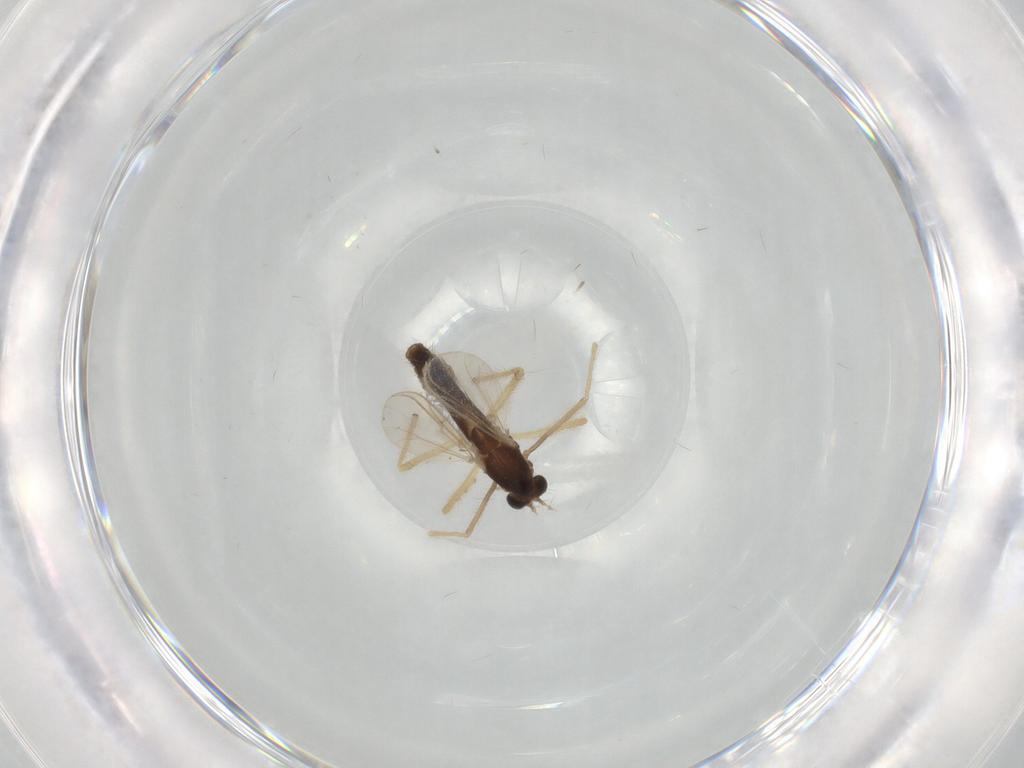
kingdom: Animalia
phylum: Arthropoda
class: Insecta
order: Diptera
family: Chironomidae
